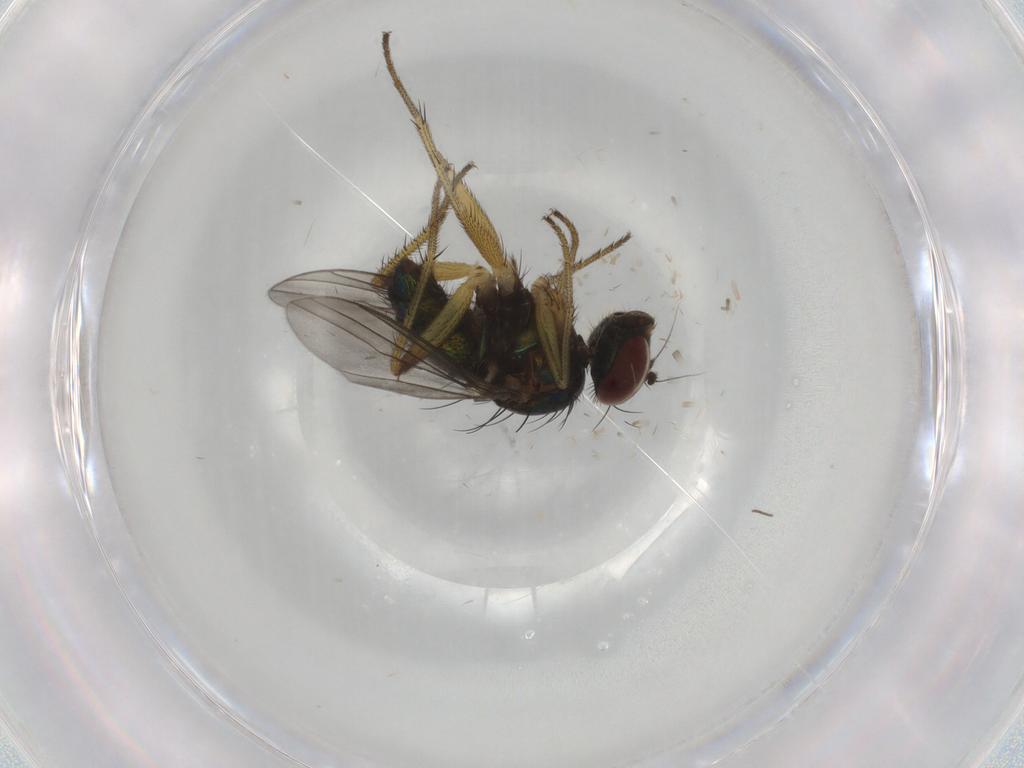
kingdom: Animalia
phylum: Arthropoda
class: Insecta
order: Diptera
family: Dolichopodidae
